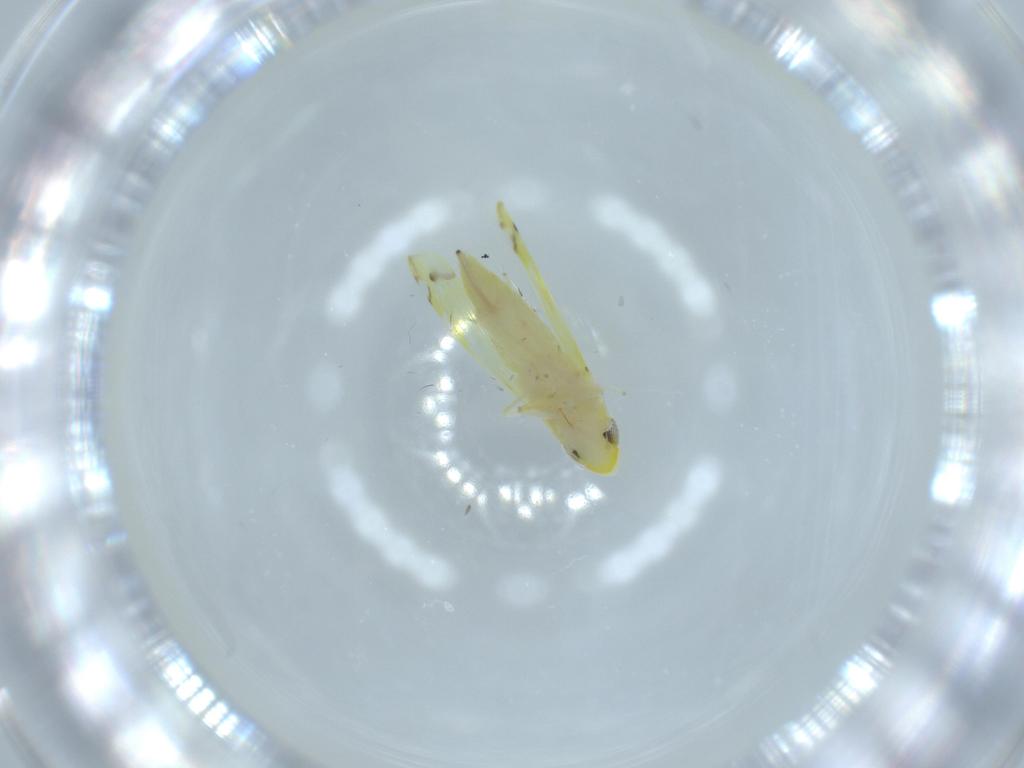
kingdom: Animalia
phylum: Arthropoda
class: Insecta
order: Hemiptera
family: Cicadellidae
